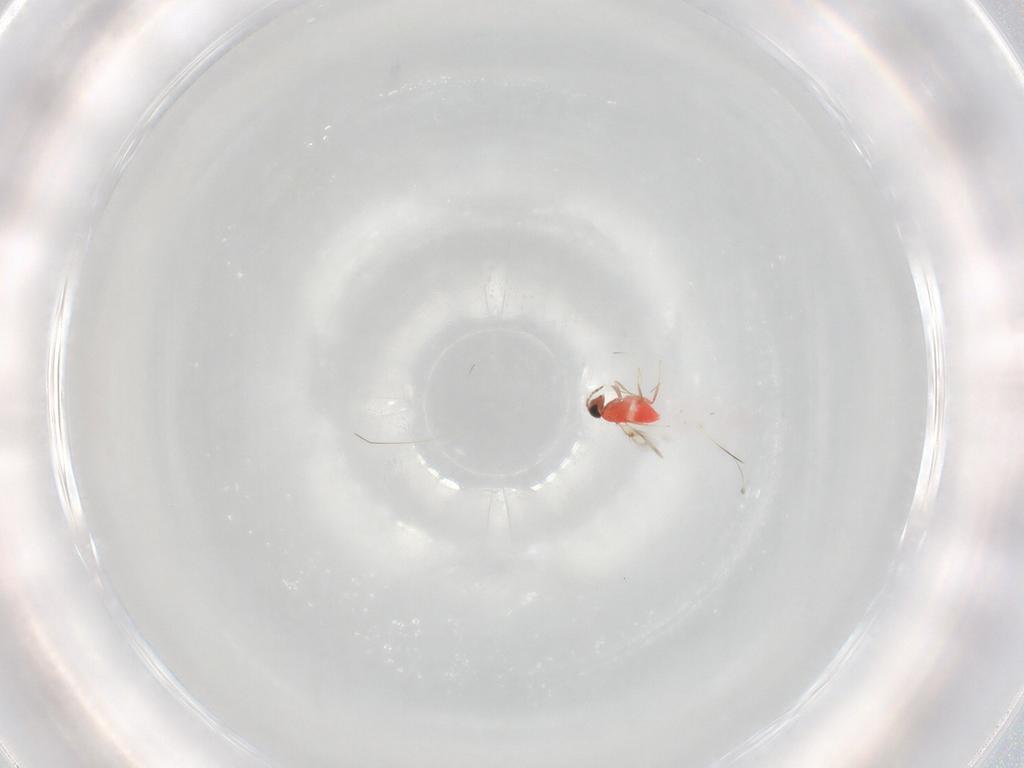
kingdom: Animalia
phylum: Arthropoda
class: Insecta
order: Hymenoptera
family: Trichogrammatidae
